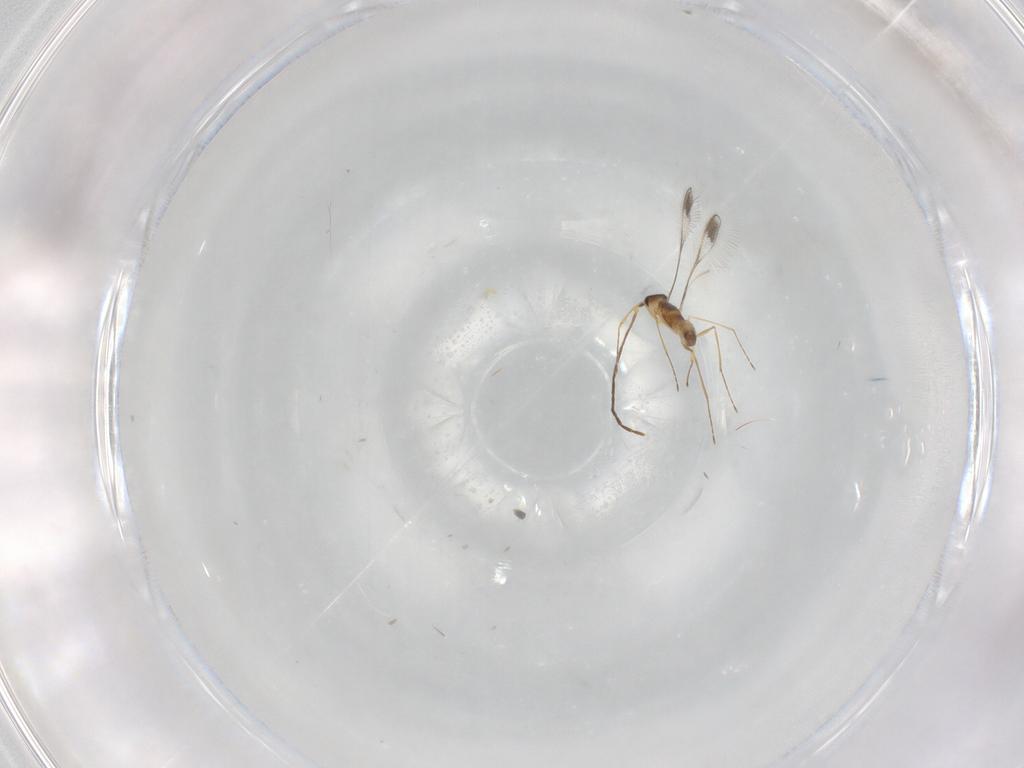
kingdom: Animalia
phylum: Arthropoda
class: Insecta
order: Hymenoptera
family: Mymaridae
